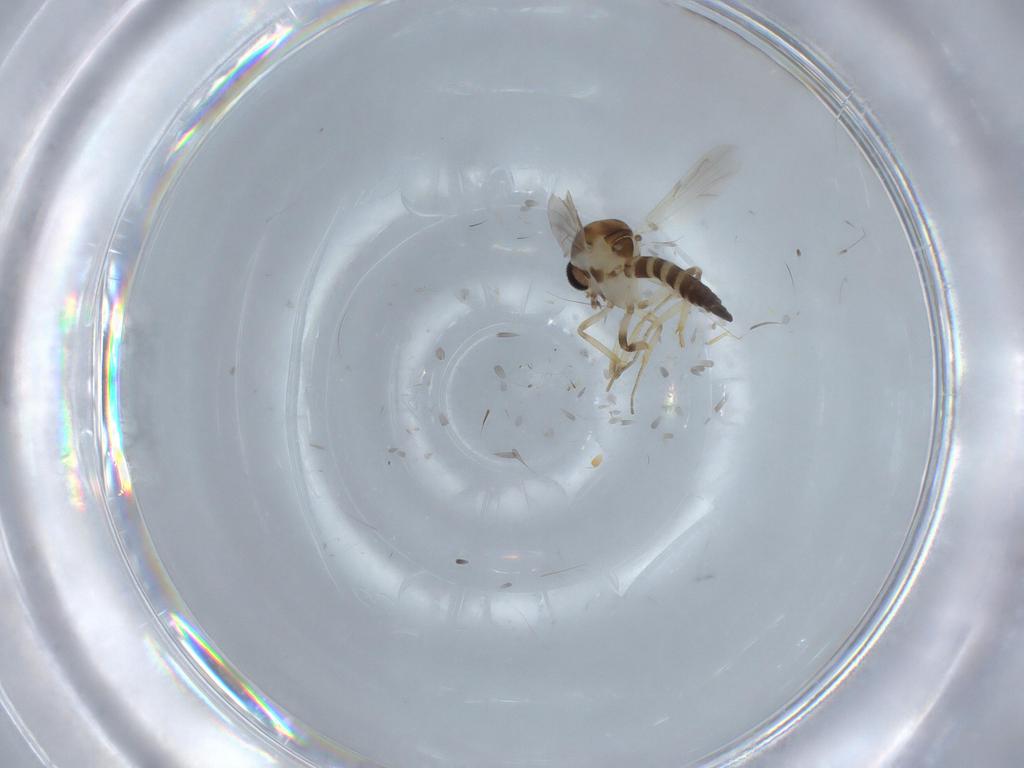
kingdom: Animalia
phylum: Arthropoda
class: Insecta
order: Diptera
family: Ceratopogonidae
